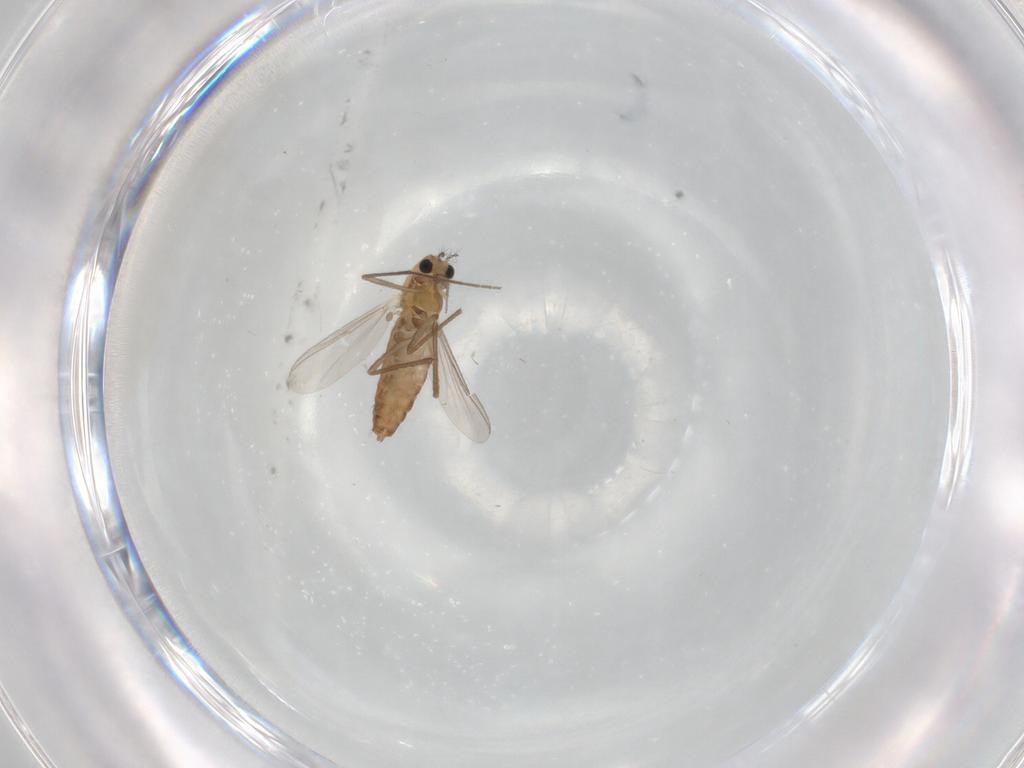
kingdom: Animalia
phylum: Arthropoda
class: Insecta
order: Diptera
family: Chironomidae
